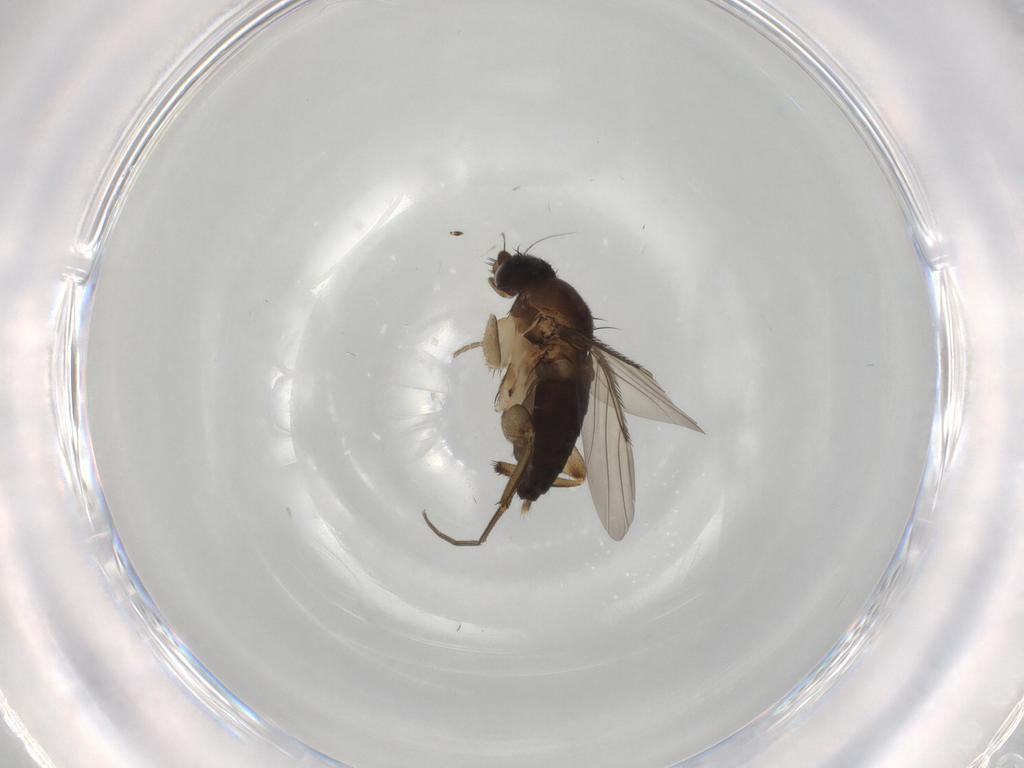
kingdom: Animalia
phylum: Arthropoda
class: Insecta
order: Diptera
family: Phoridae
